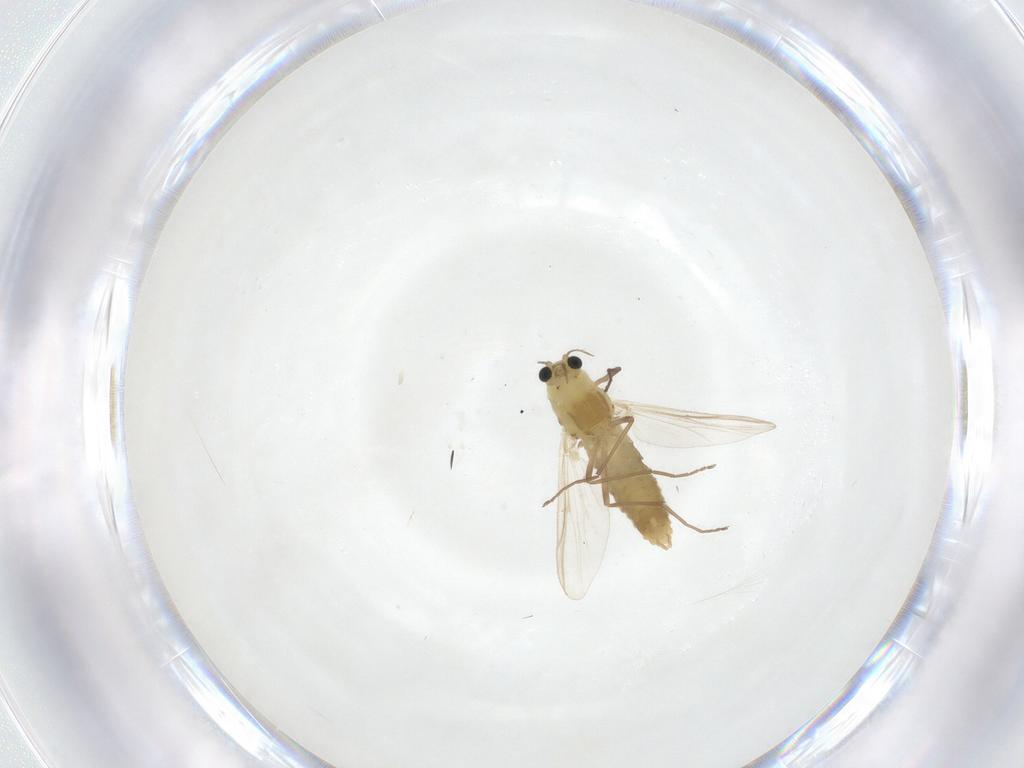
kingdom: Animalia
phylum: Arthropoda
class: Insecta
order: Diptera
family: Chironomidae
